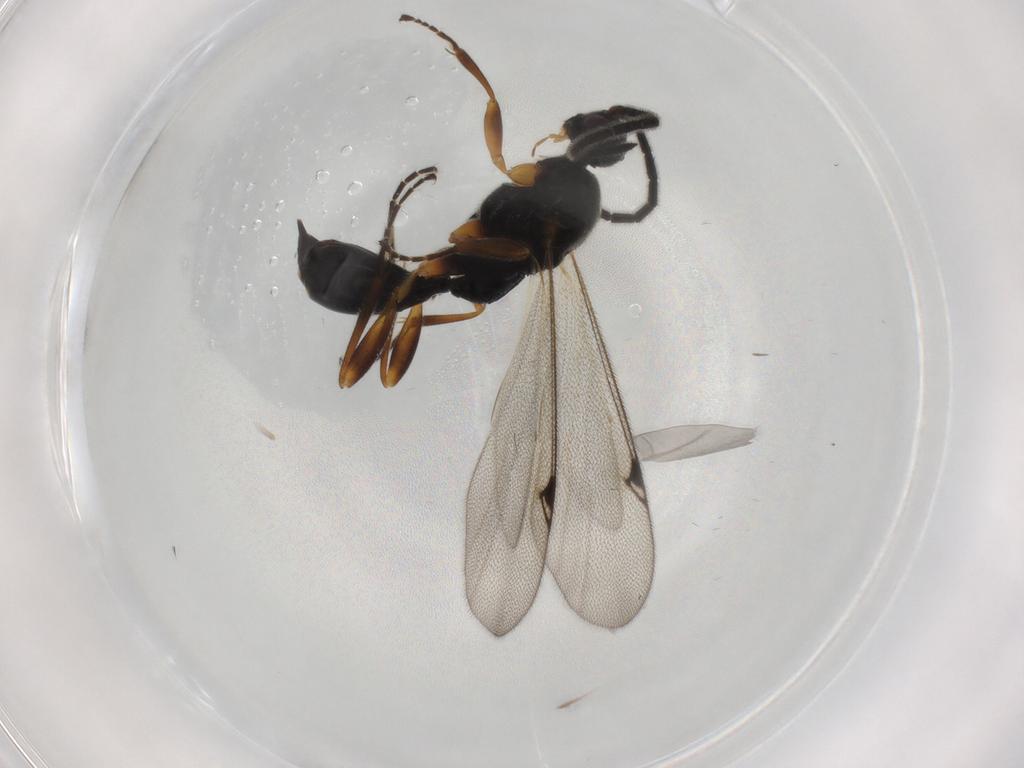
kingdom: Animalia
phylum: Arthropoda
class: Insecta
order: Hymenoptera
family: Proctotrupidae
